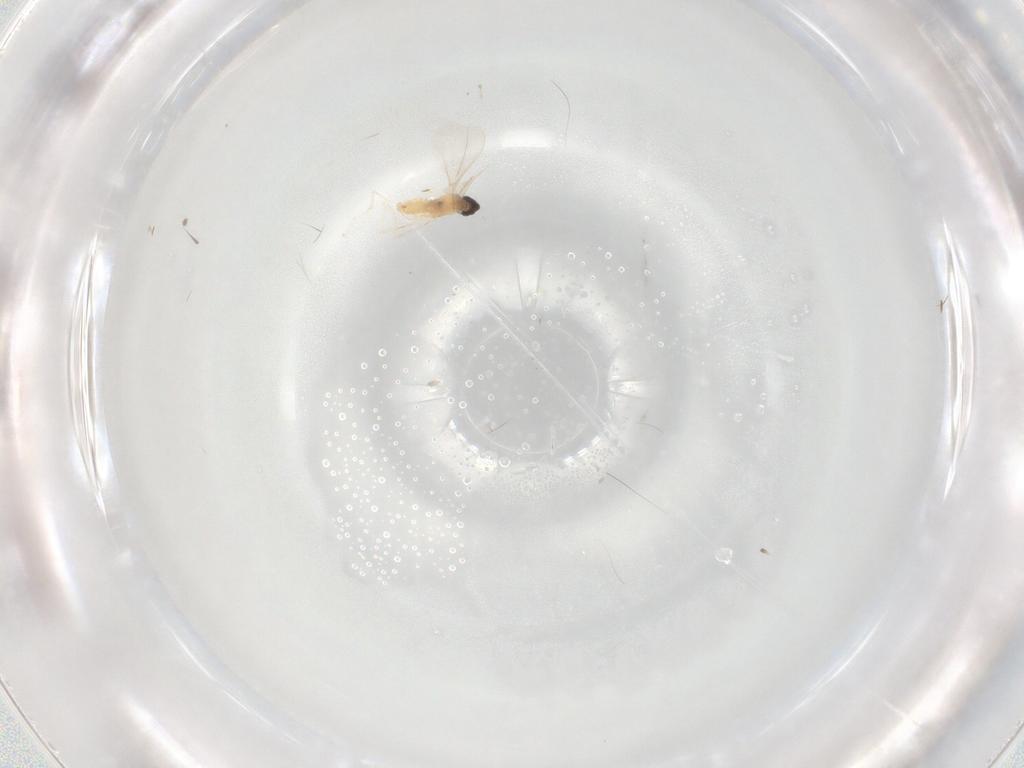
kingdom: Animalia
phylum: Arthropoda
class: Insecta
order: Diptera
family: Cecidomyiidae
